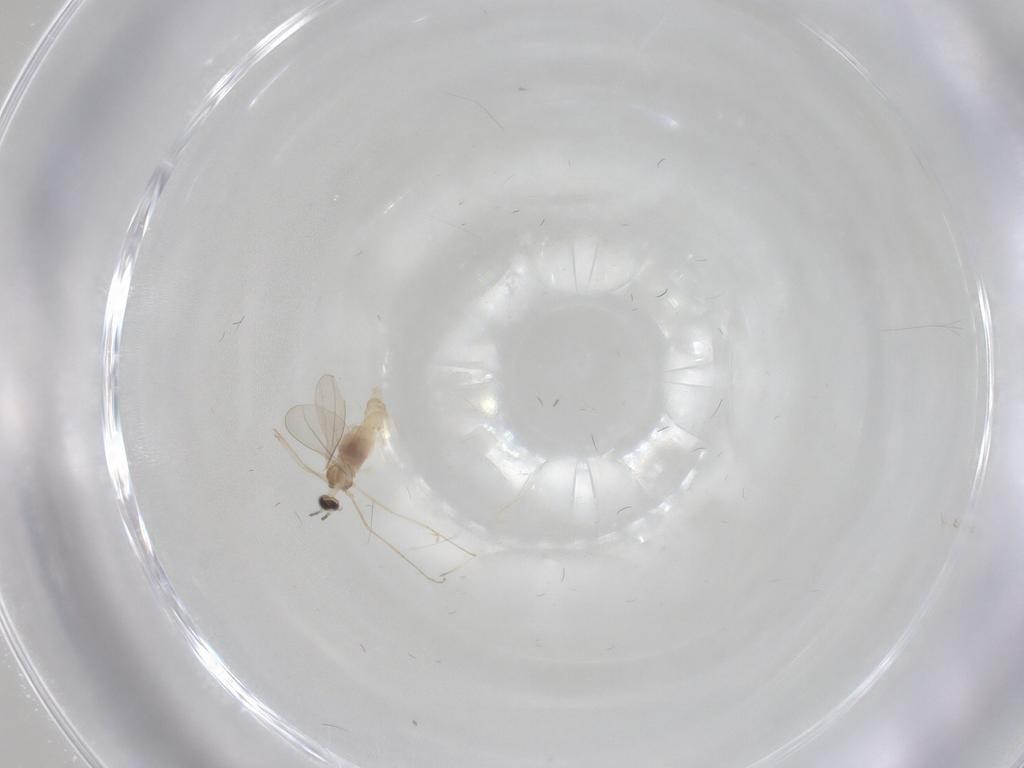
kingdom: Animalia
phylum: Arthropoda
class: Insecta
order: Diptera
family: Cecidomyiidae
